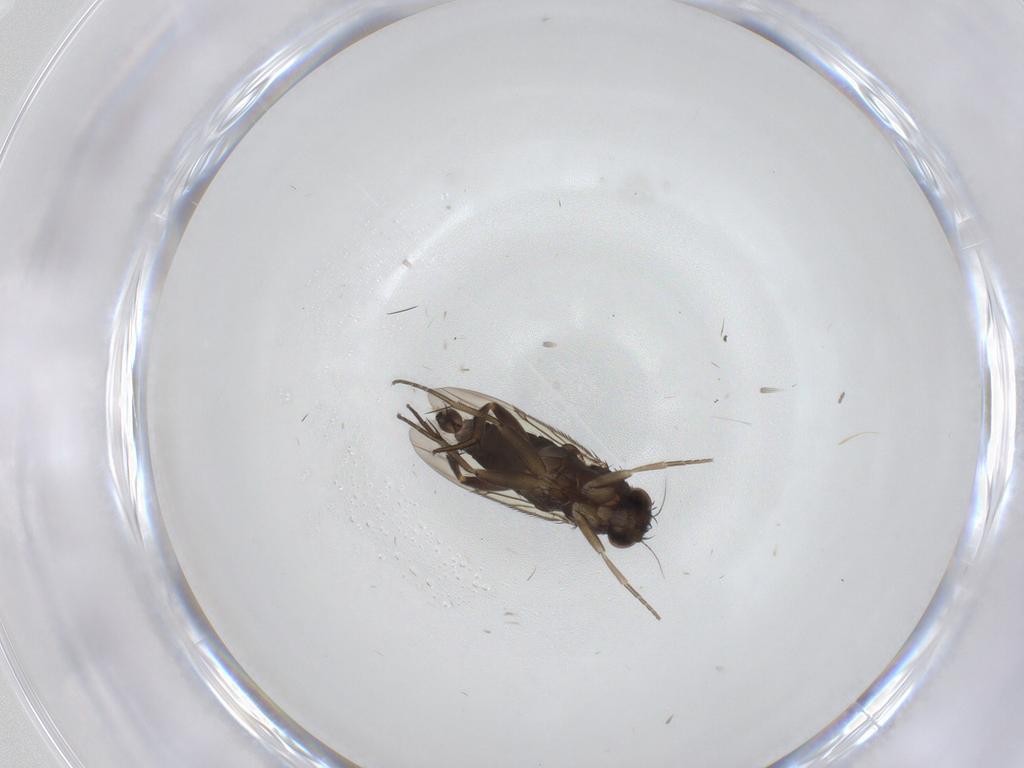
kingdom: Animalia
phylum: Arthropoda
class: Insecta
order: Diptera
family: Phoridae
